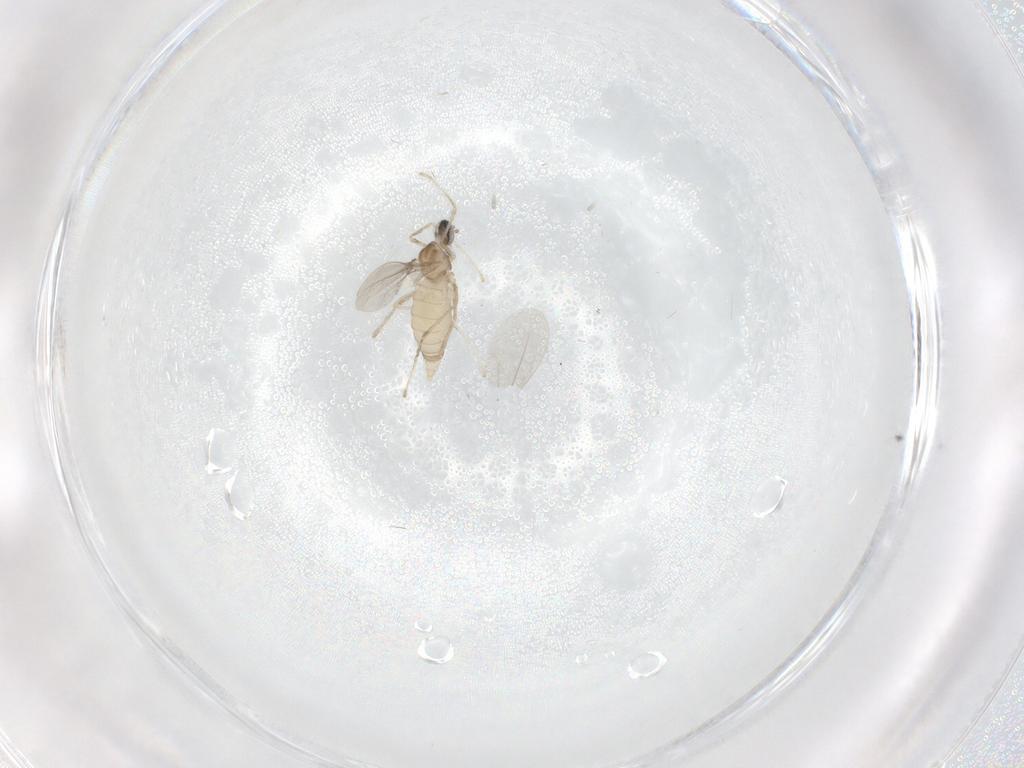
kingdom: Animalia
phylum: Arthropoda
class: Insecta
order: Diptera
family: Cecidomyiidae
